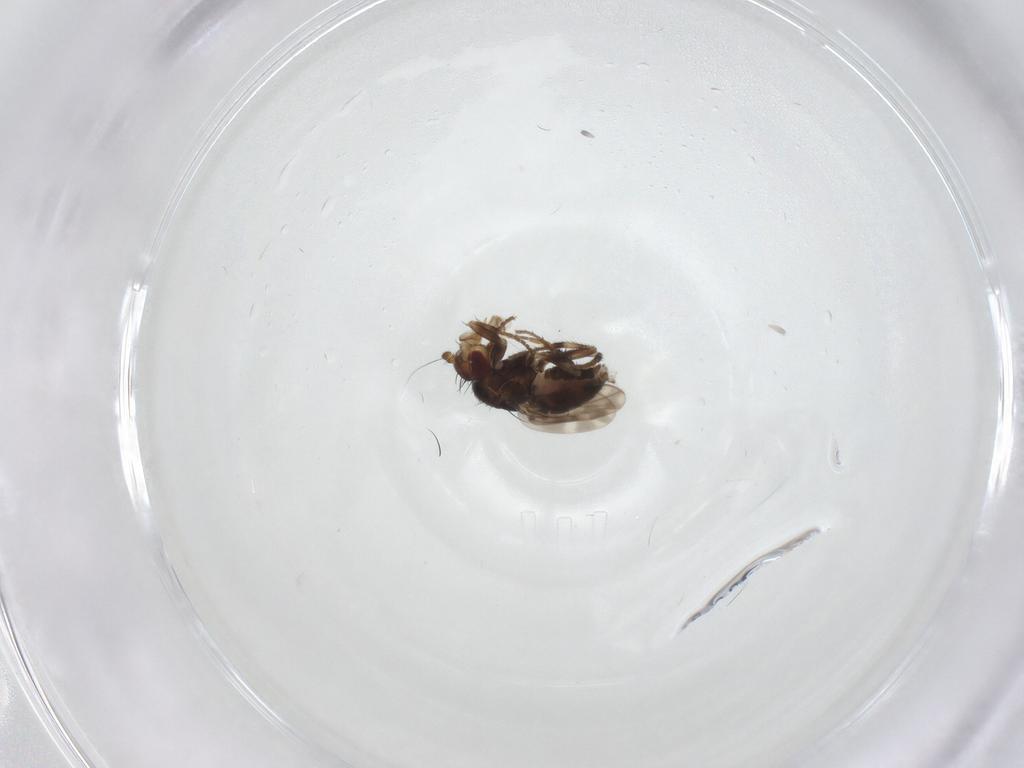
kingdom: Animalia
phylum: Arthropoda
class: Insecta
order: Diptera
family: Sphaeroceridae
